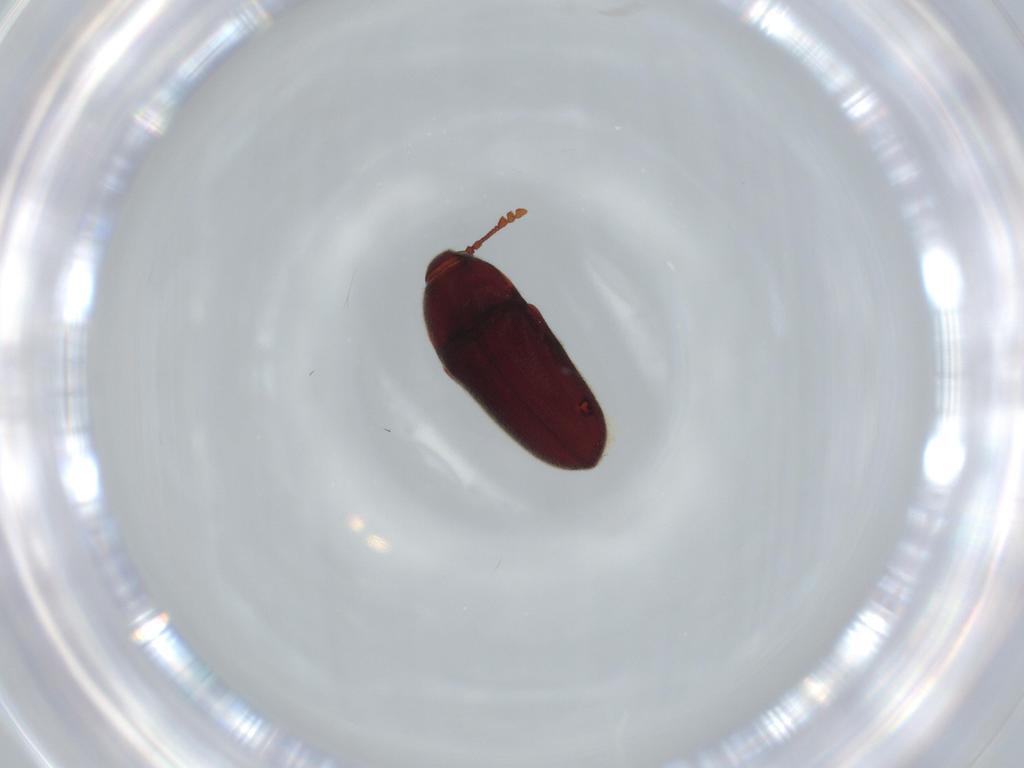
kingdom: Animalia
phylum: Arthropoda
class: Insecta
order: Coleoptera
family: Throscidae
